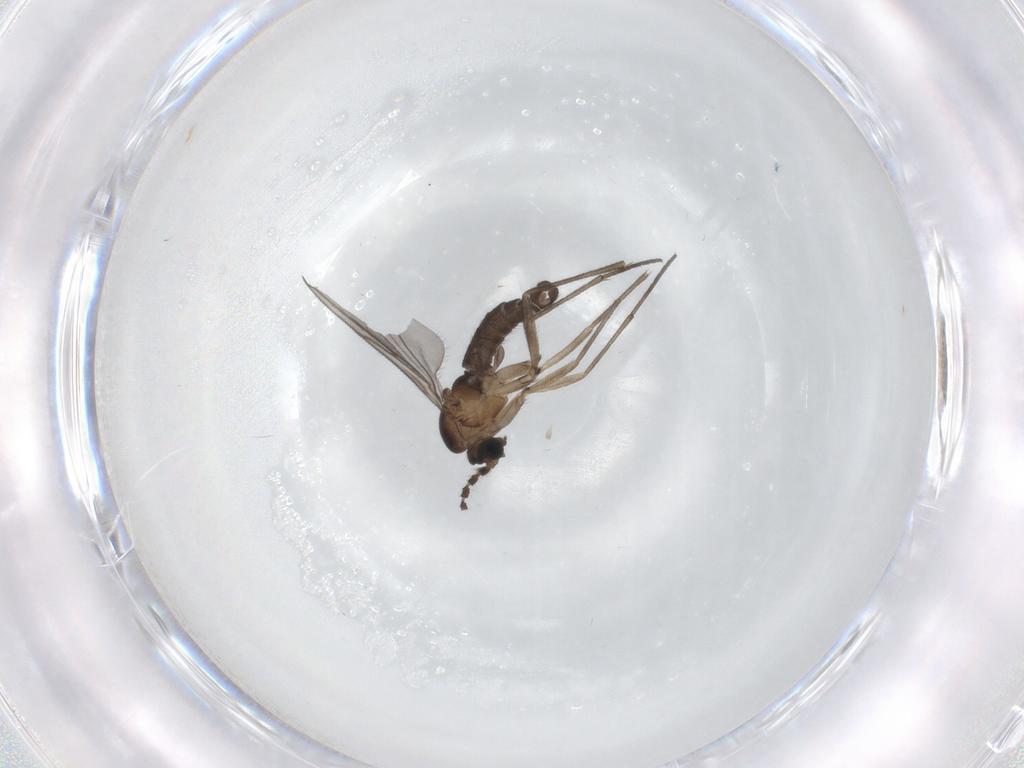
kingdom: Animalia
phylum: Arthropoda
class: Insecta
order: Diptera
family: Sciaridae
